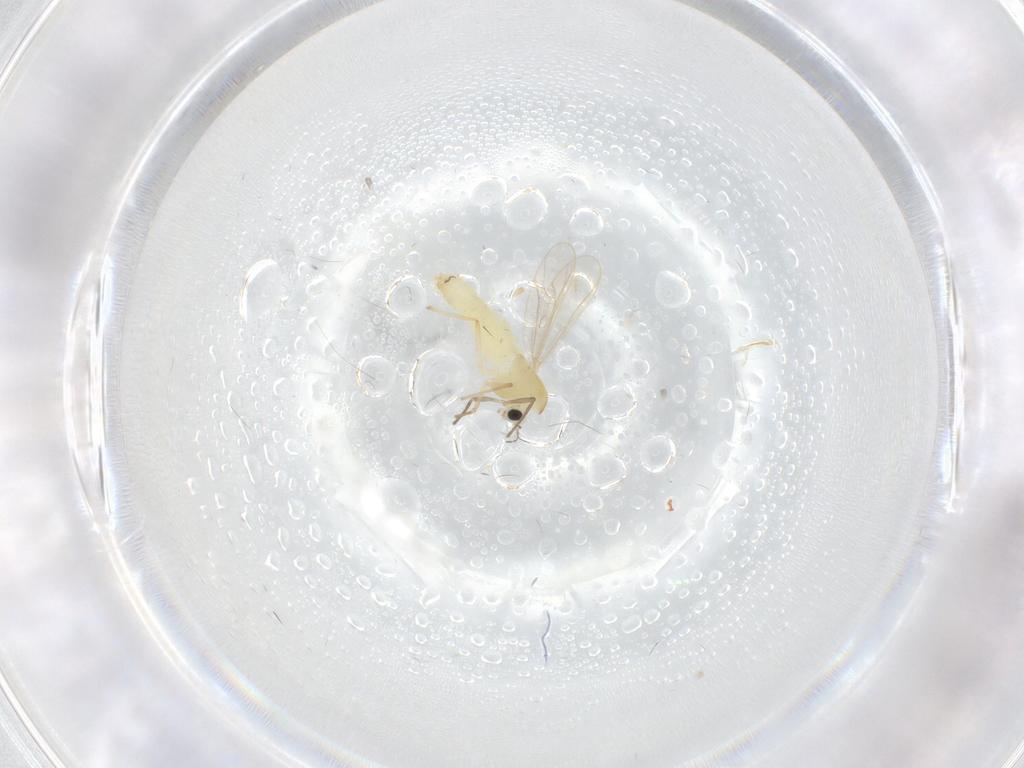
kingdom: Animalia
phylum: Arthropoda
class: Insecta
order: Diptera
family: Chironomidae
